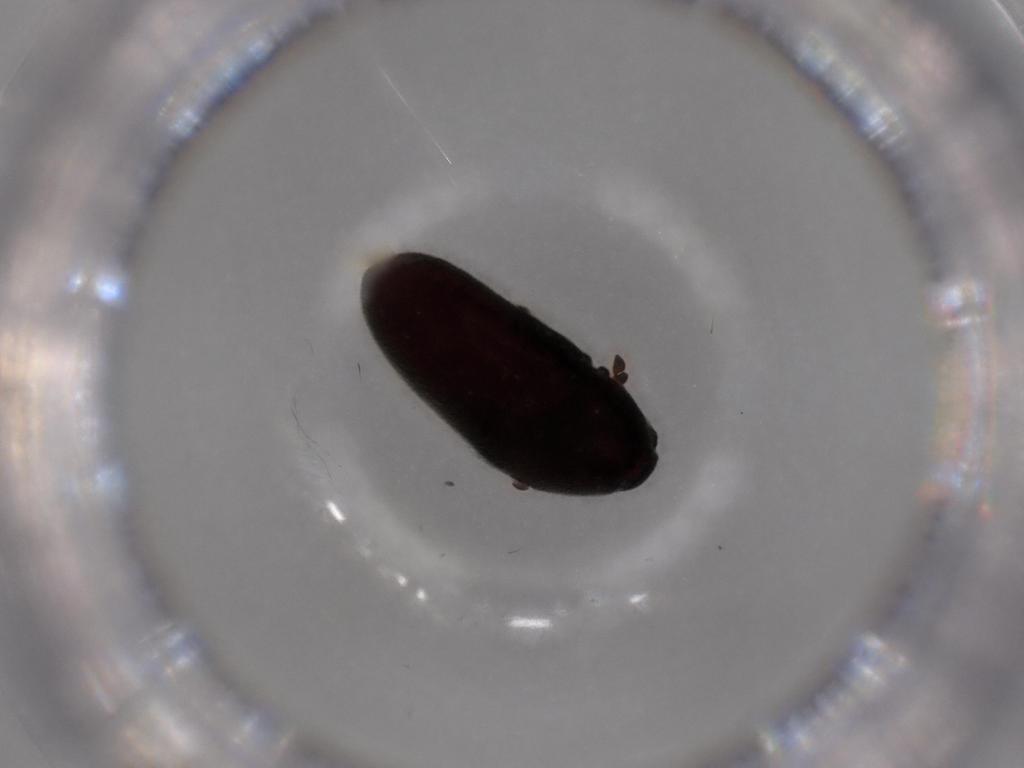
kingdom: Animalia
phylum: Arthropoda
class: Insecta
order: Coleoptera
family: Throscidae
